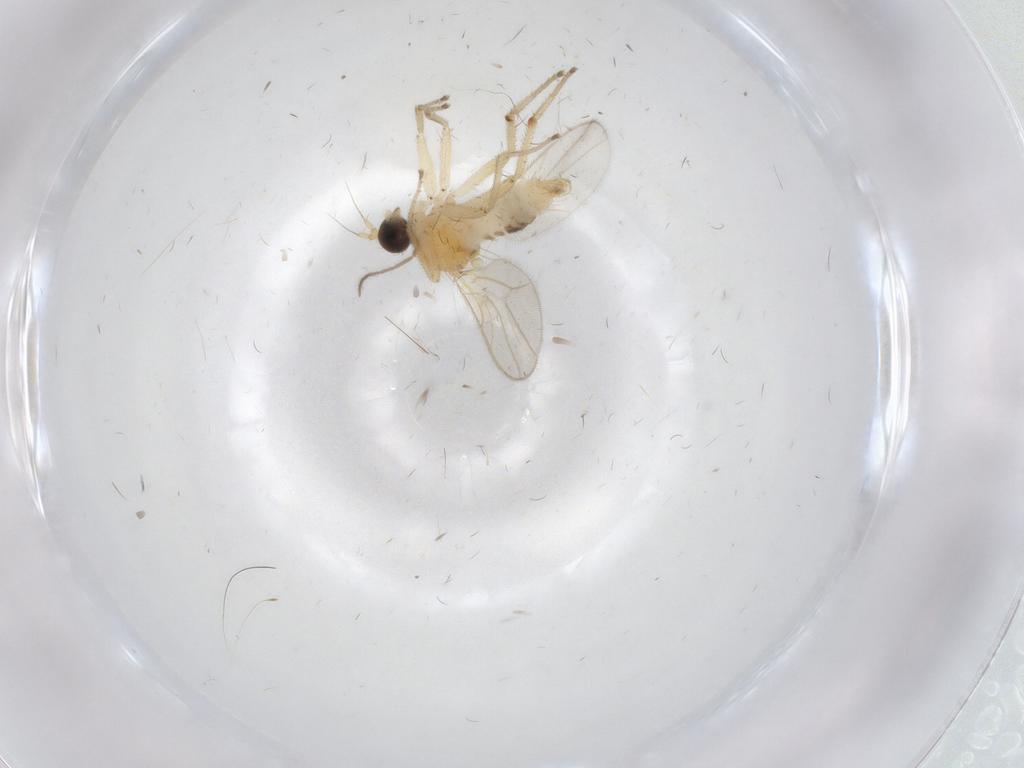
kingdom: Animalia
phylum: Arthropoda
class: Insecta
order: Diptera
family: Hybotidae
